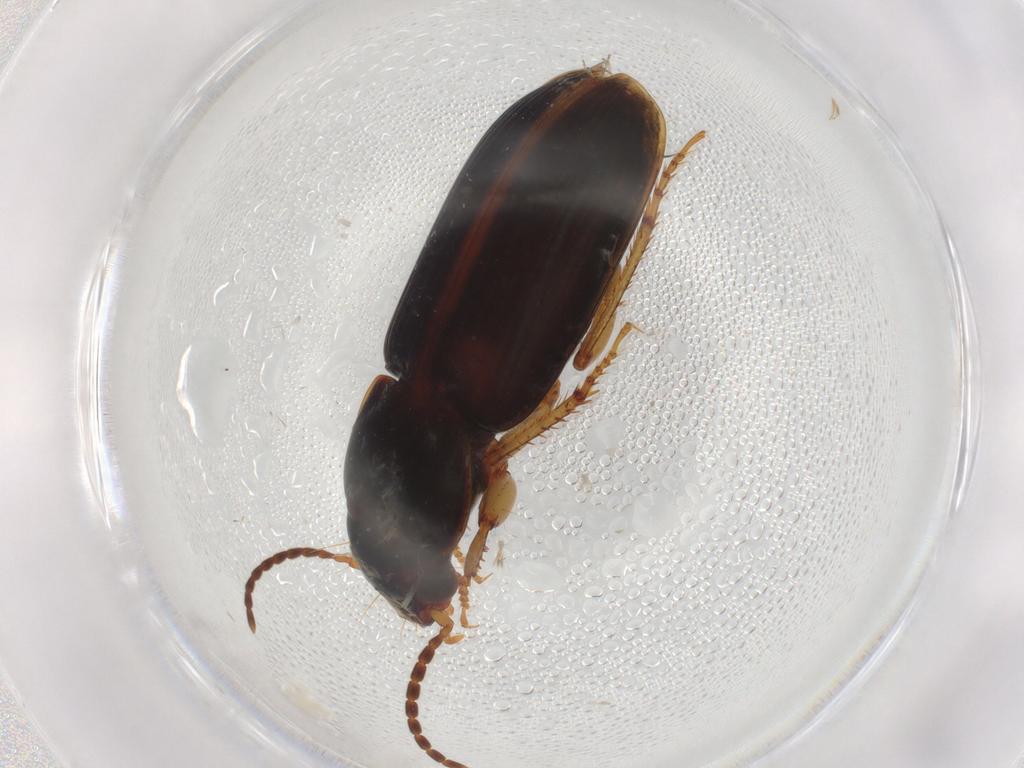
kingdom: Animalia
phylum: Arthropoda
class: Insecta
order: Coleoptera
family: Carabidae
